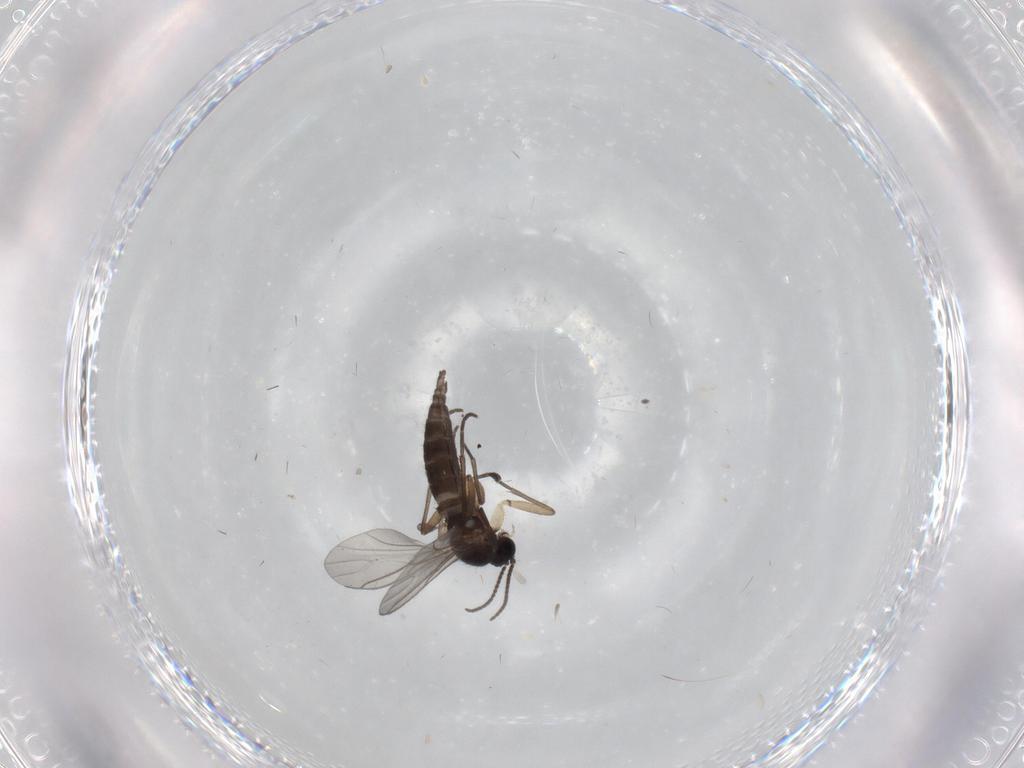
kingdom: Animalia
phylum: Arthropoda
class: Insecta
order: Diptera
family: Sciaridae
